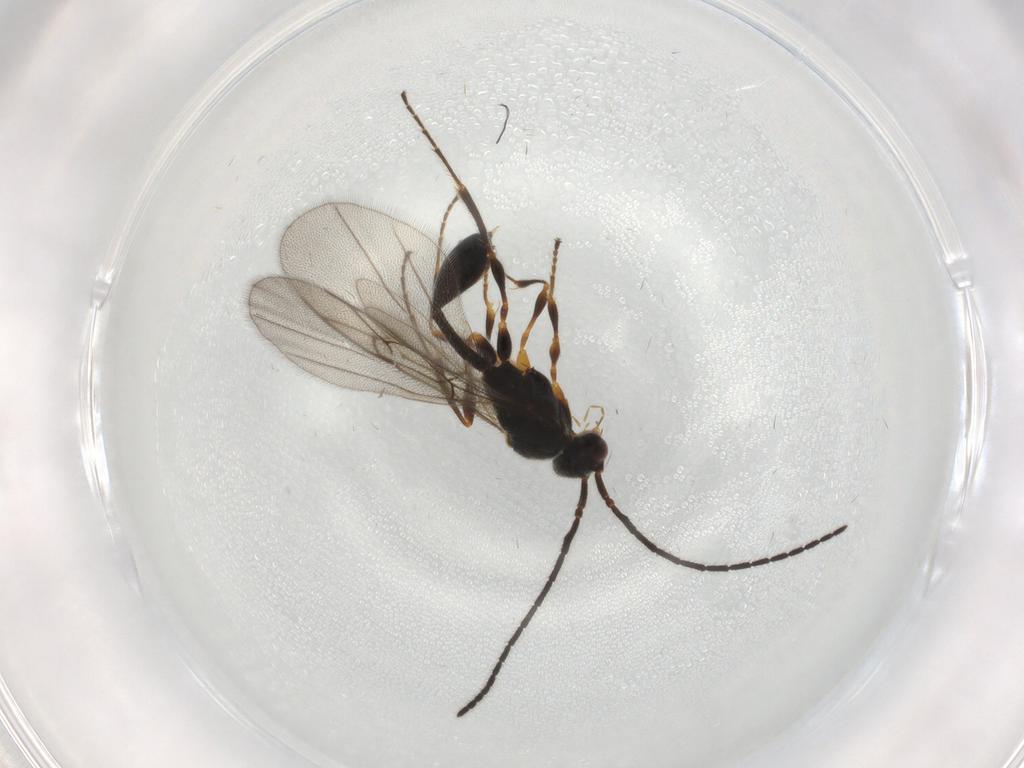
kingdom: Animalia
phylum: Arthropoda
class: Insecta
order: Hymenoptera
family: Diapriidae
